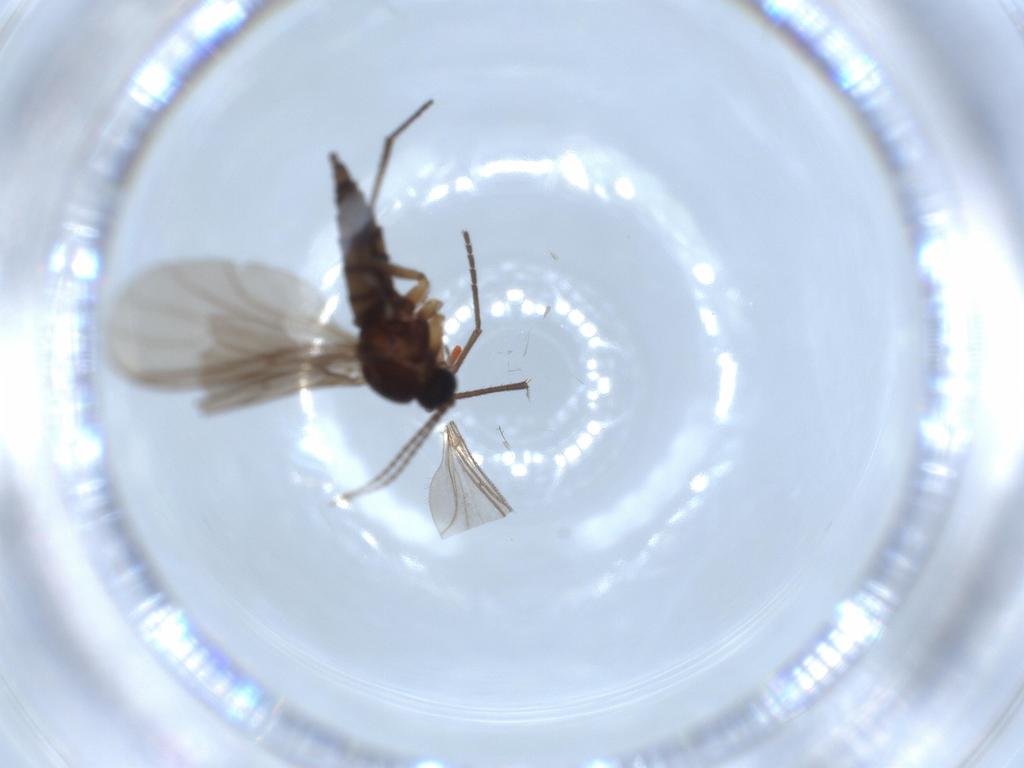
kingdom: Animalia
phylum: Arthropoda
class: Insecta
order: Diptera
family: Sciaridae
